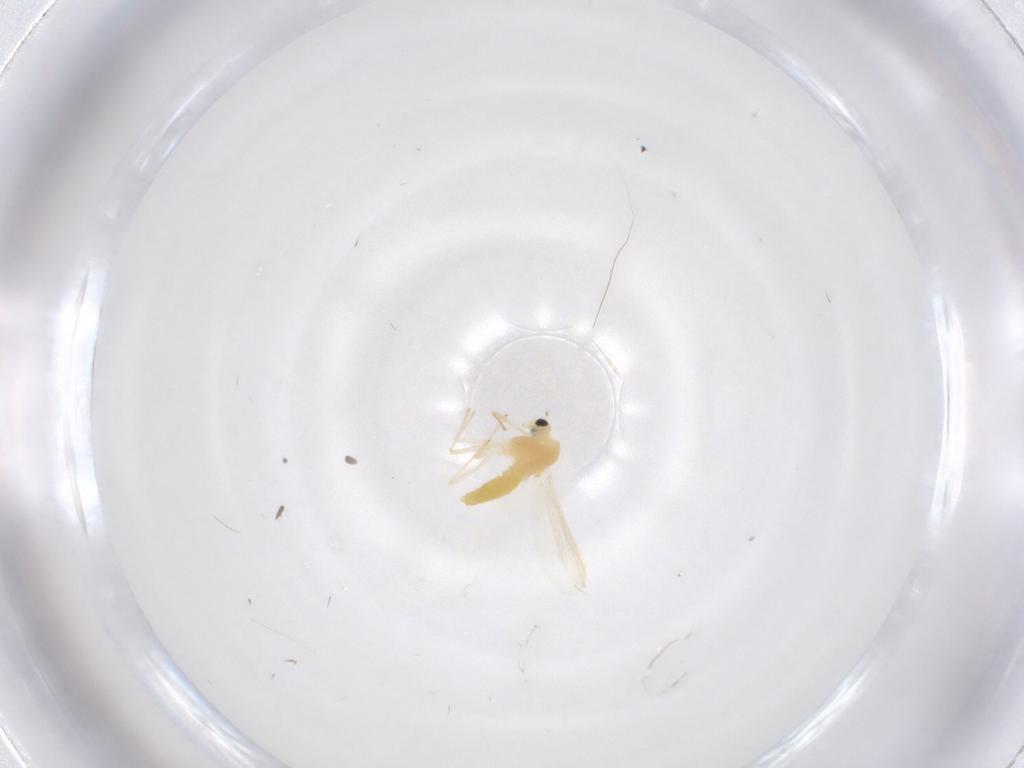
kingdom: Animalia
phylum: Arthropoda
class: Insecta
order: Diptera
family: Chironomidae
